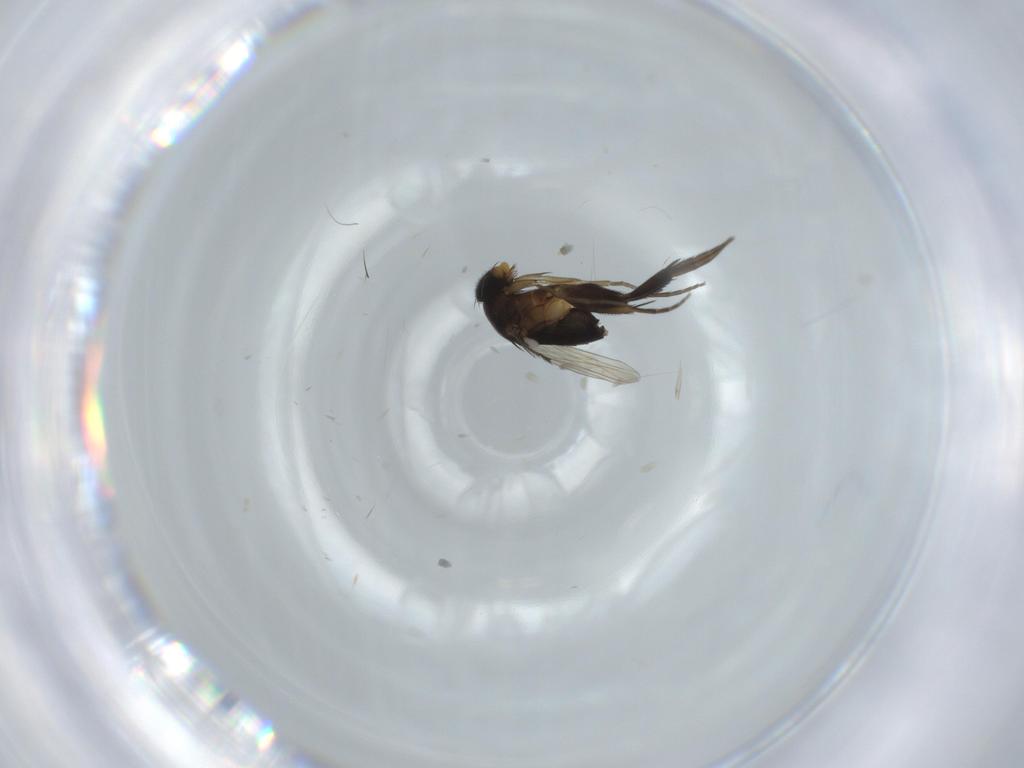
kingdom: Animalia
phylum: Arthropoda
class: Insecta
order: Diptera
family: Phoridae
